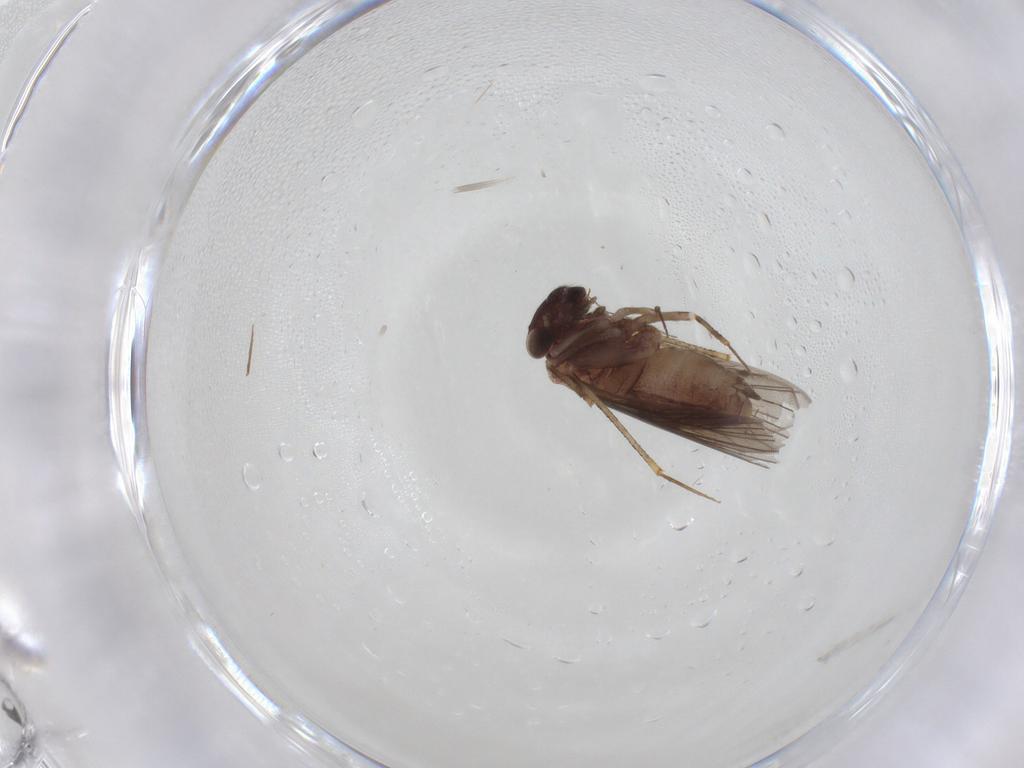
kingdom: Animalia
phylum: Arthropoda
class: Insecta
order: Psocodea
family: Lepidopsocidae
